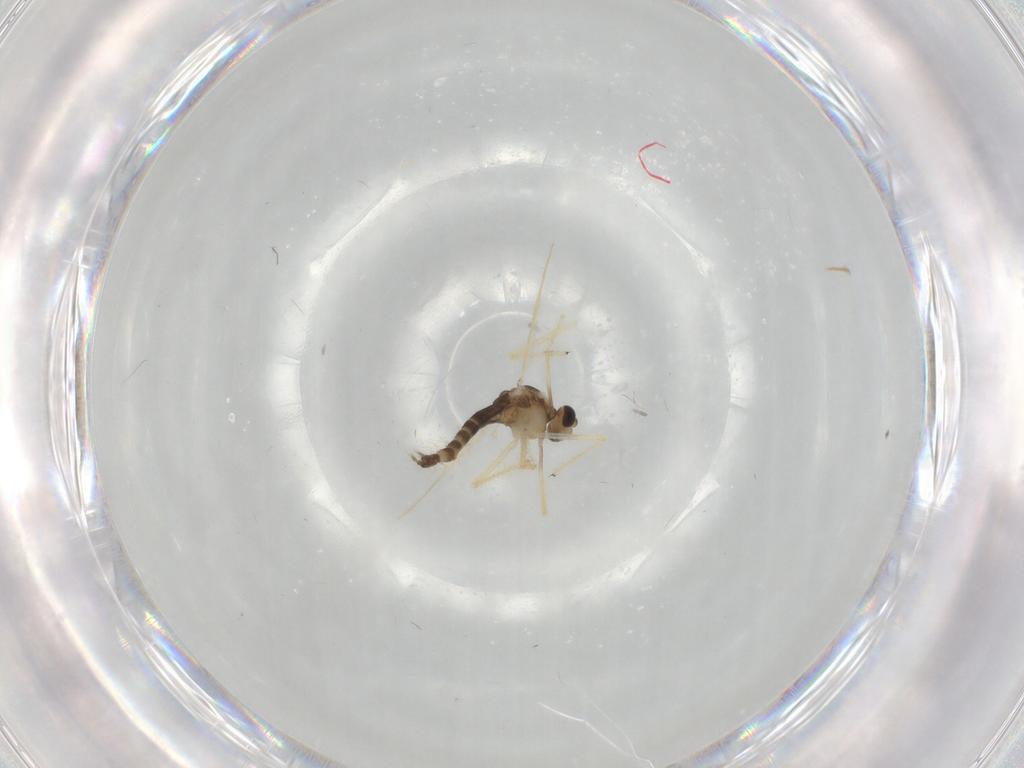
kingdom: Animalia
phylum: Arthropoda
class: Insecta
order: Diptera
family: Chironomidae
